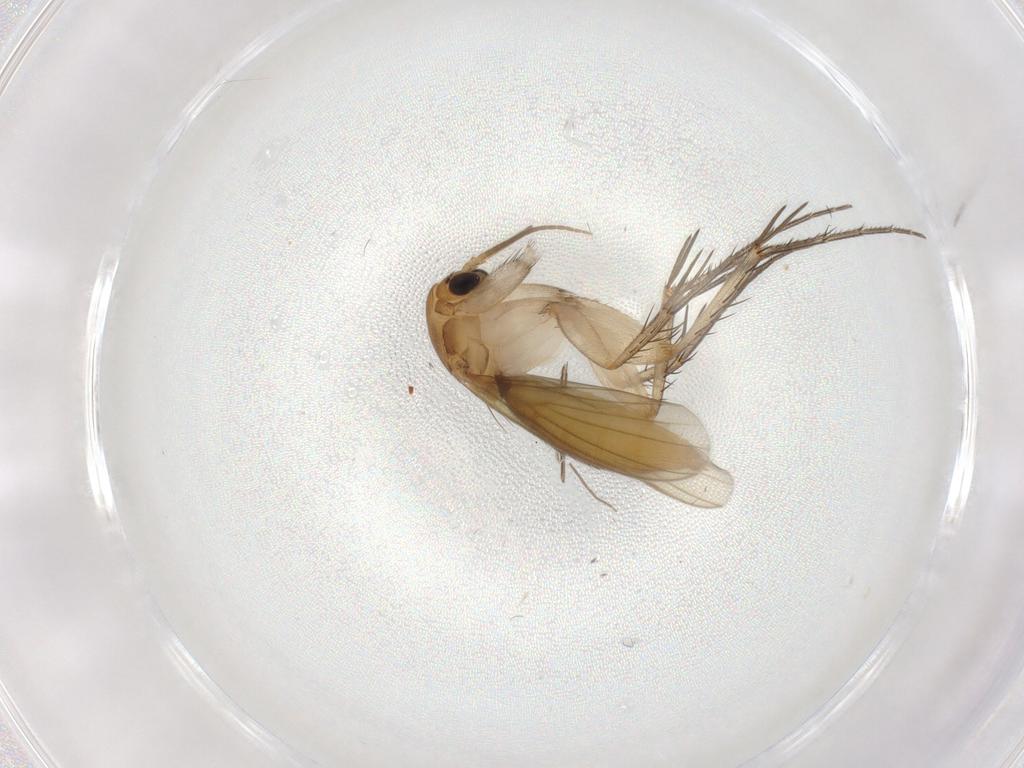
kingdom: Animalia
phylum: Arthropoda
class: Insecta
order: Diptera
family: Mycetophilidae
